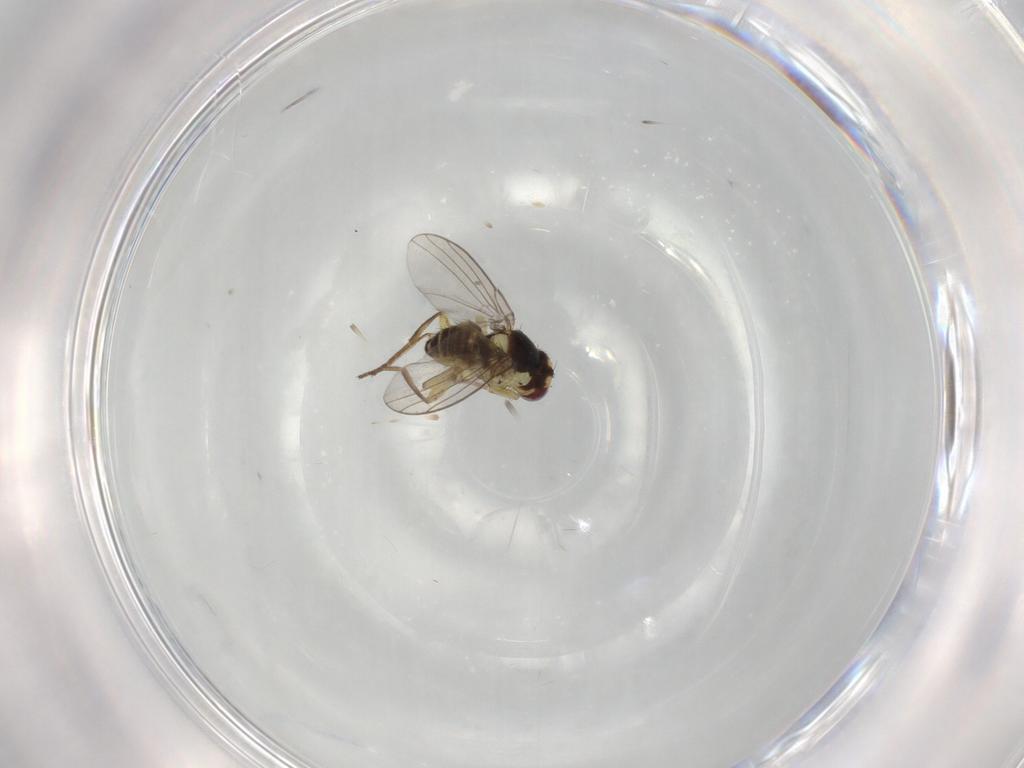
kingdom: Animalia
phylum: Arthropoda
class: Insecta
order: Diptera
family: Agromyzidae
